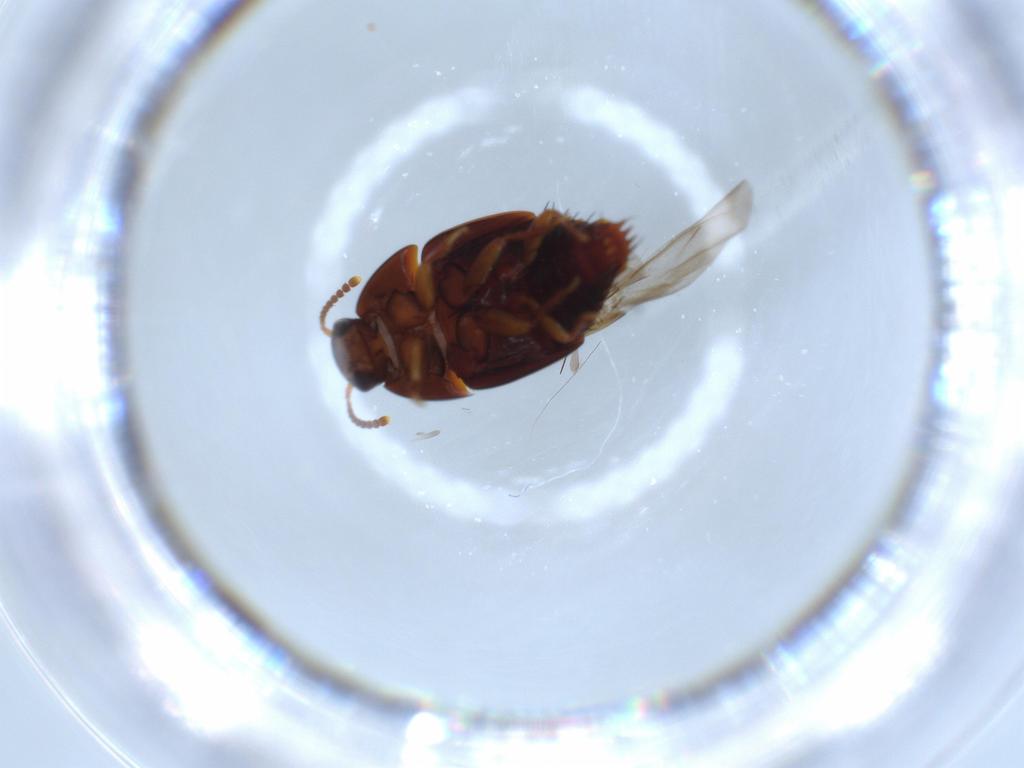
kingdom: Animalia
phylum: Arthropoda
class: Insecta
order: Coleoptera
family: Staphylinidae
